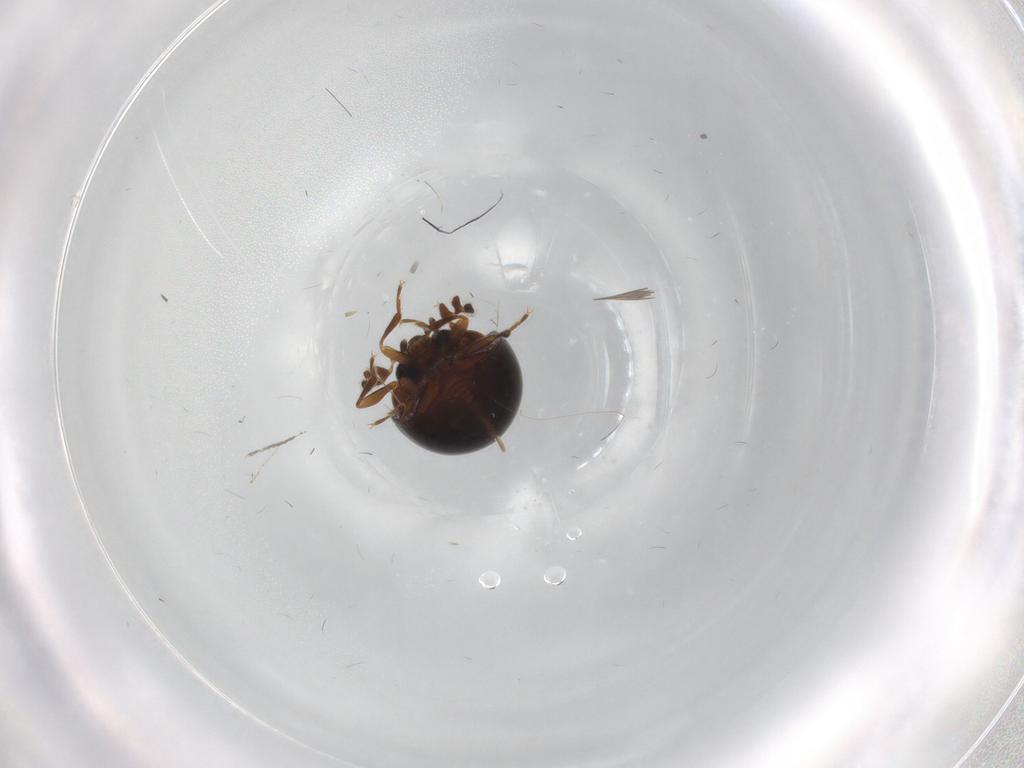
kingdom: Animalia
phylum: Arthropoda
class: Insecta
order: Coleoptera
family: Anamorphidae
